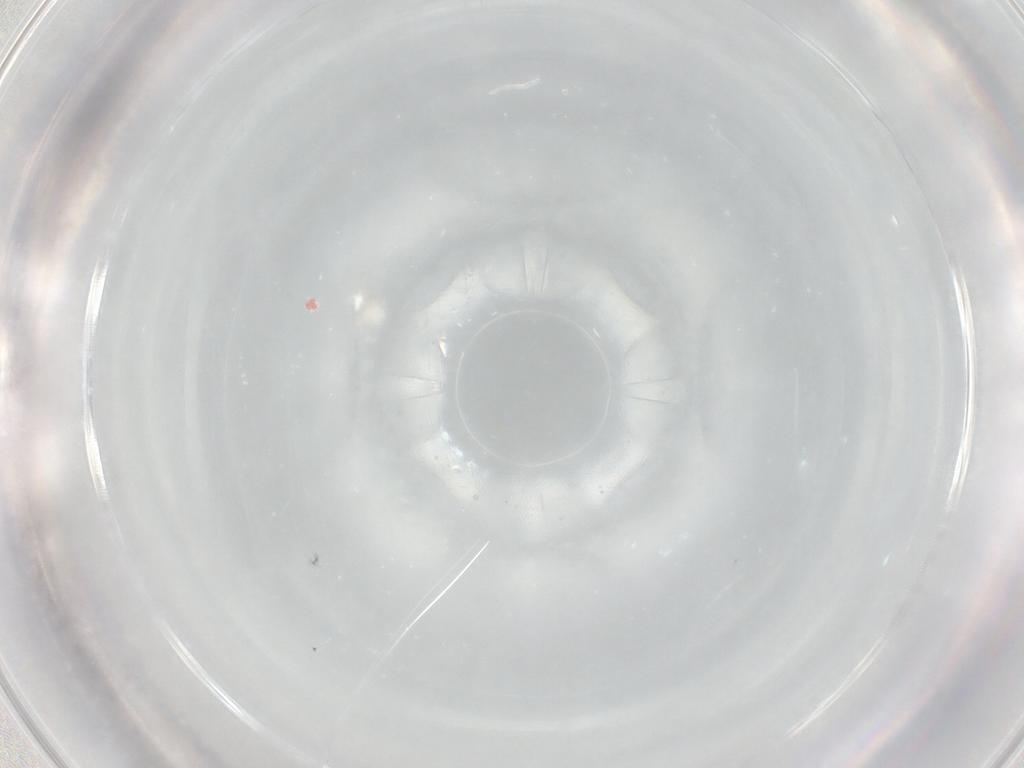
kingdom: Animalia
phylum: Arthropoda
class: Insecta
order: Diptera
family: Cecidomyiidae
